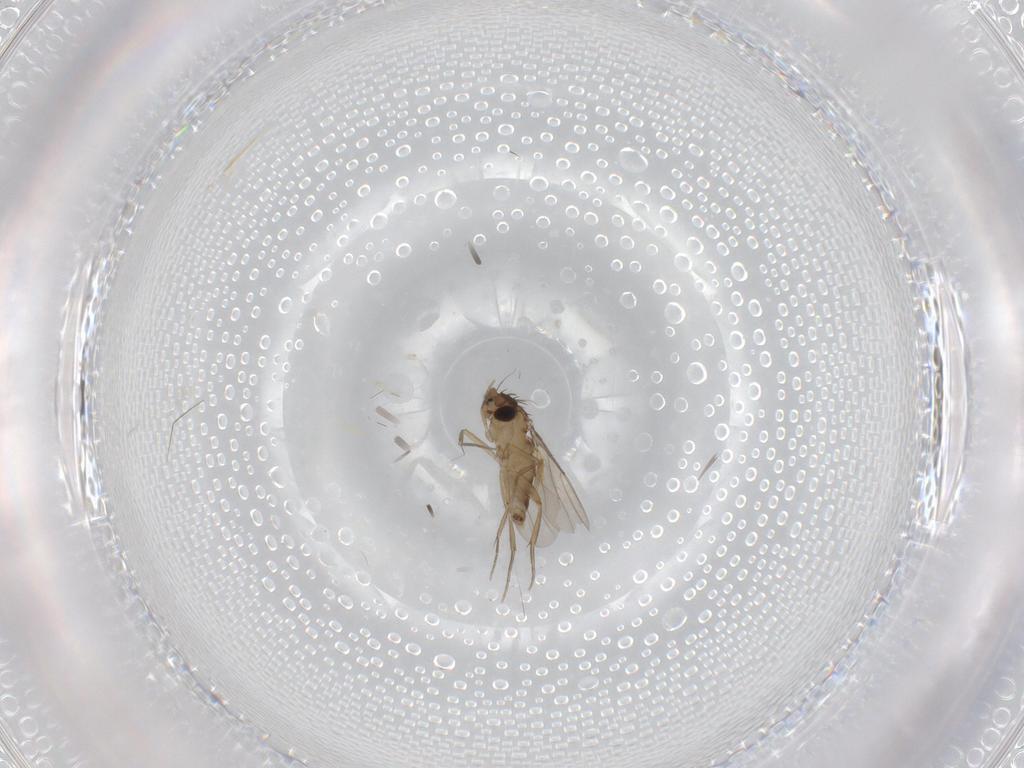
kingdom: Animalia
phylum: Arthropoda
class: Insecta
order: Diptera
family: Phoridae
